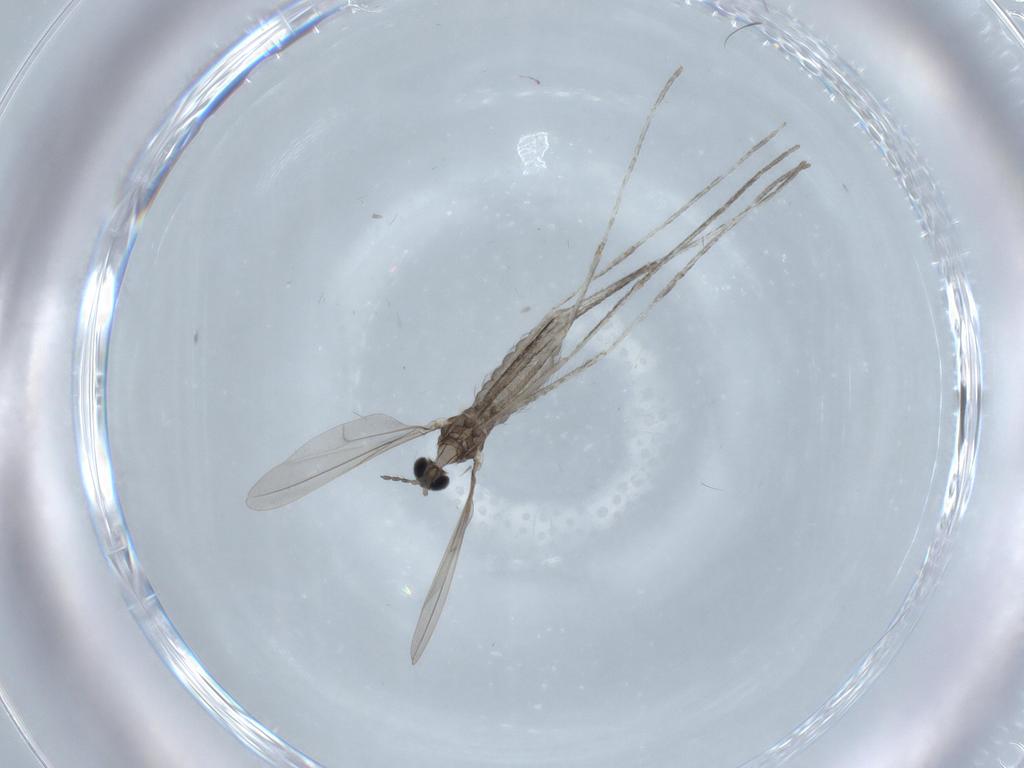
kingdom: Animalia
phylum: Arthropoda
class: Insecta
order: Diptera
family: Cecidomyiidae
